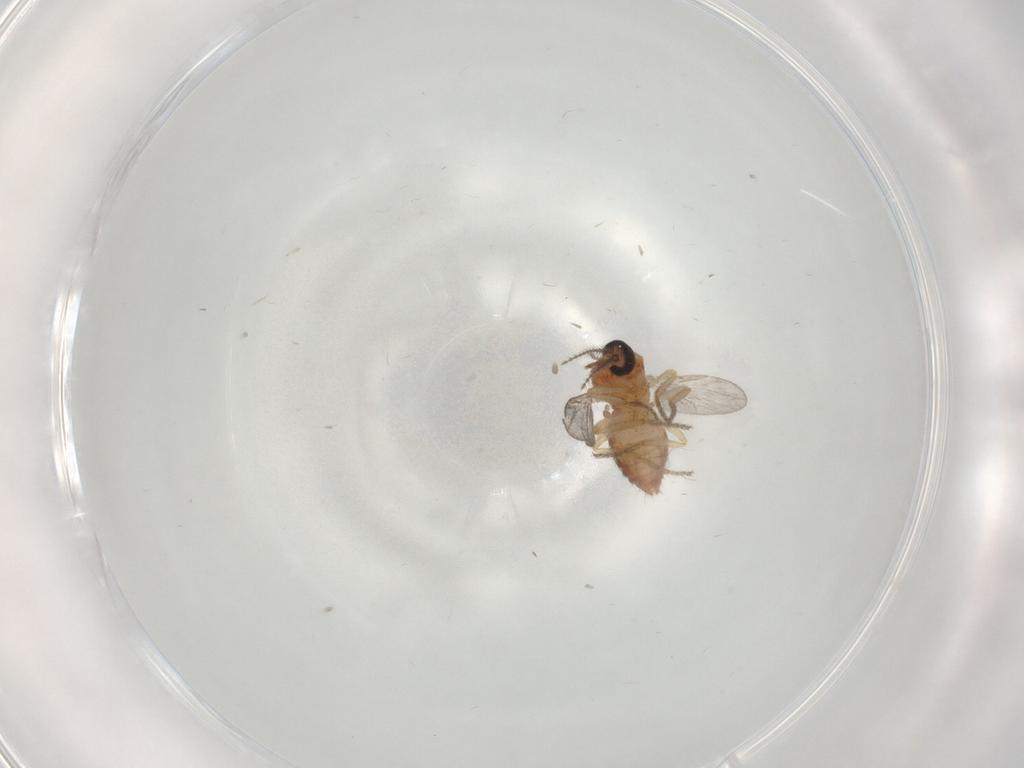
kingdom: Animalia
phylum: Arthropoda
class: Insecta
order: Diptera
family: Ceratopogonidae
